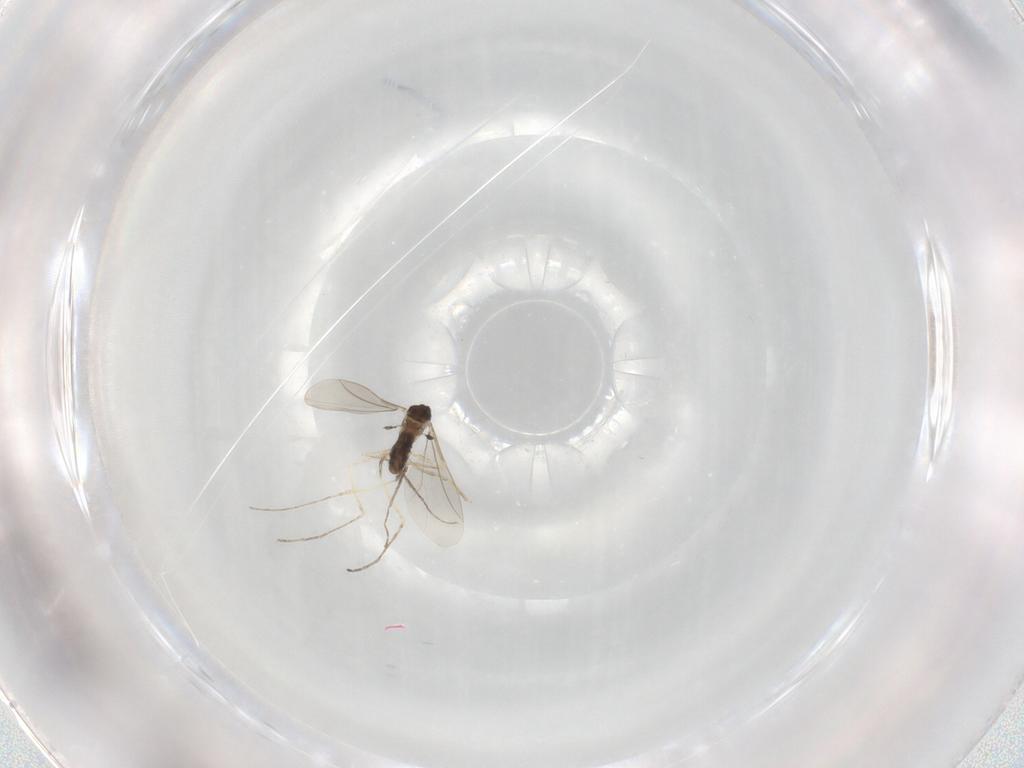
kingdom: Animalia
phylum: Arthropoda
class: Insecta
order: Diptera
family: Cecidomyiidae
